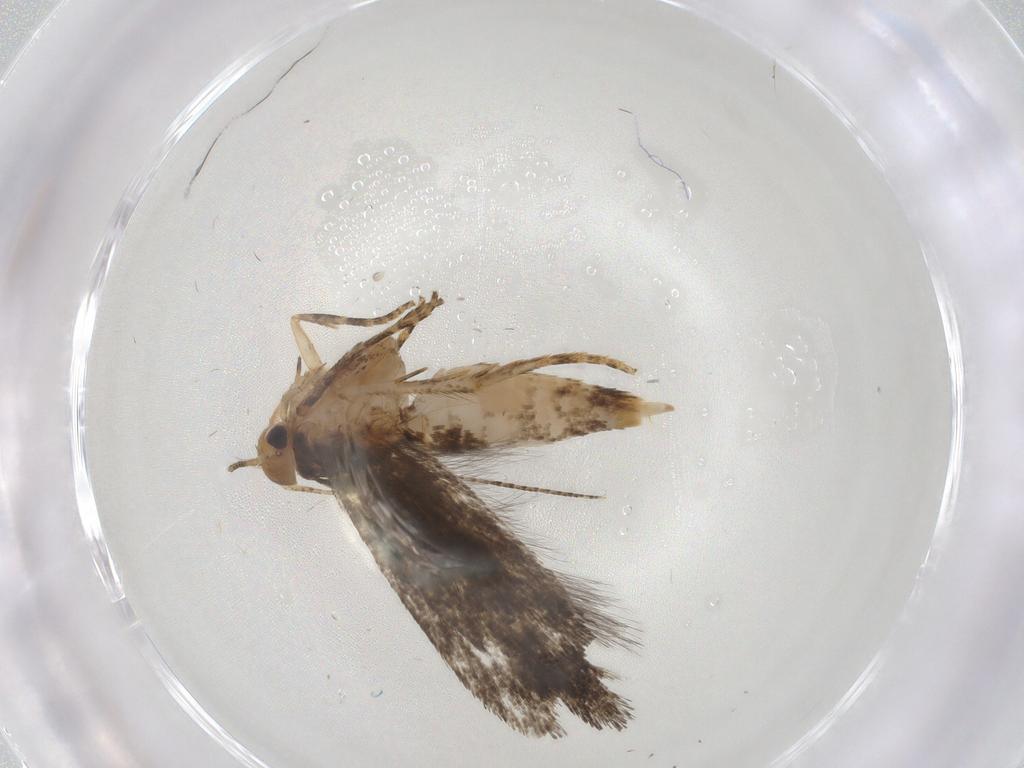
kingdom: Animalia
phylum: Arthropoda
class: Insecta
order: Lepidoptera
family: Gelechiidae
